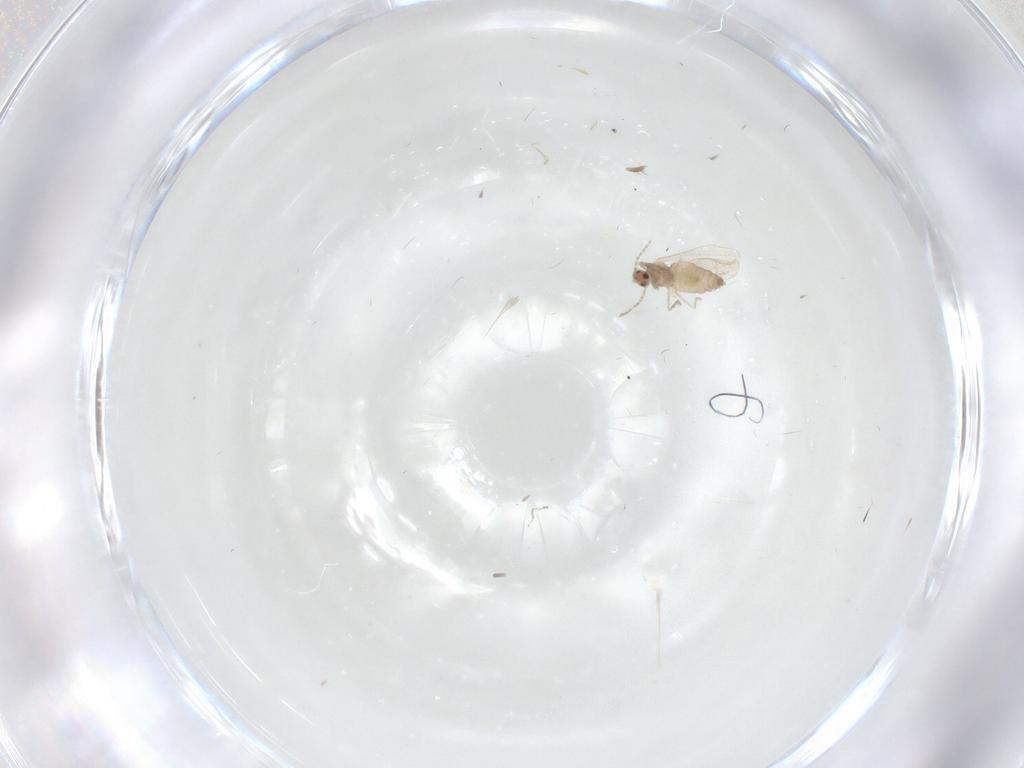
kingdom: Animalia
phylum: Arthropoda
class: Insecta
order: Diptera
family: Cecidomyiidae
